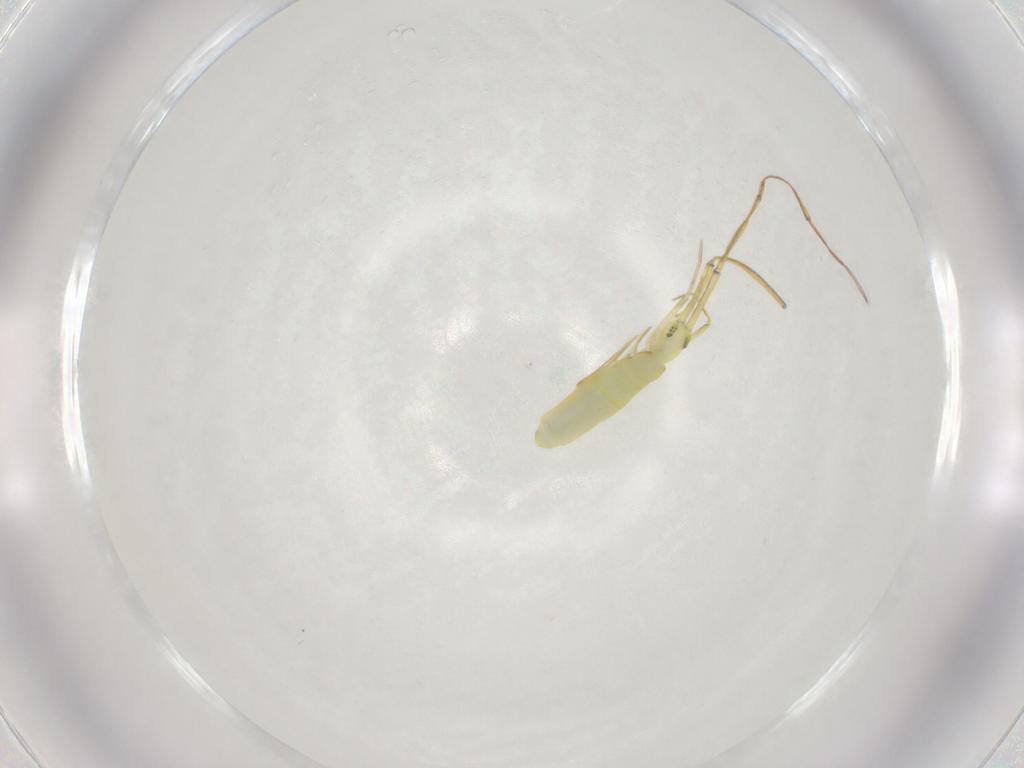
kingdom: Animalia
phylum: Arthropoda
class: Collembola
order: Entomobryomorpha
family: Paronellidae
